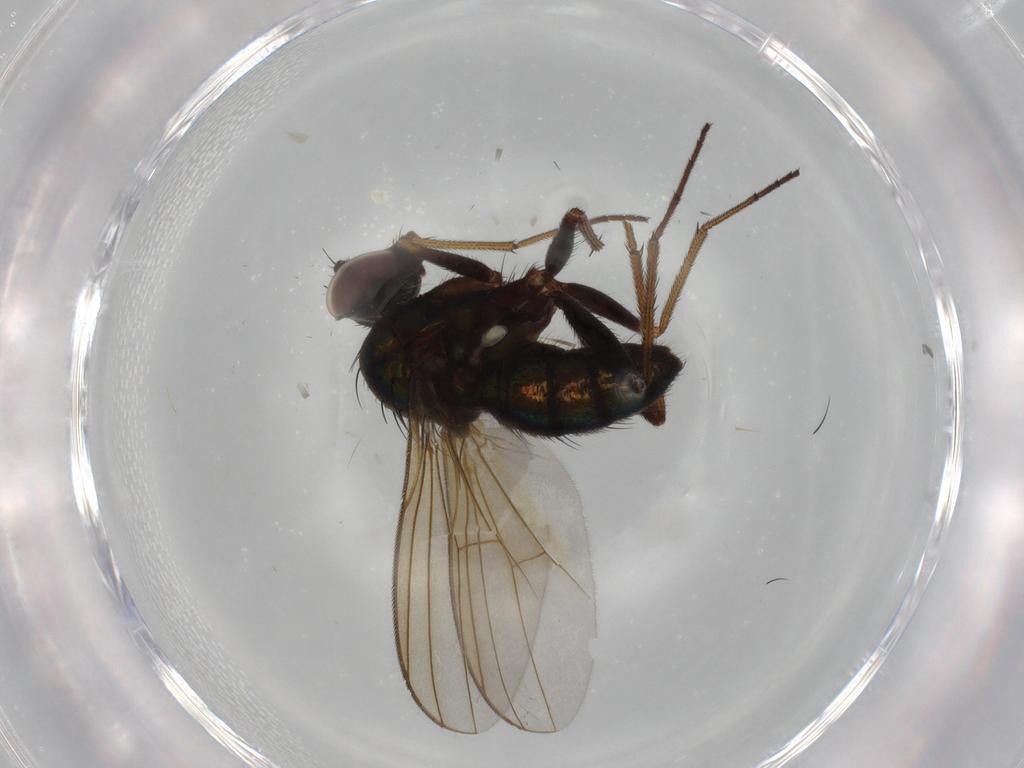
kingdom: Animalia
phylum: Arthropoda
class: Insecta
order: Diptera
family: Dolichopodidae
